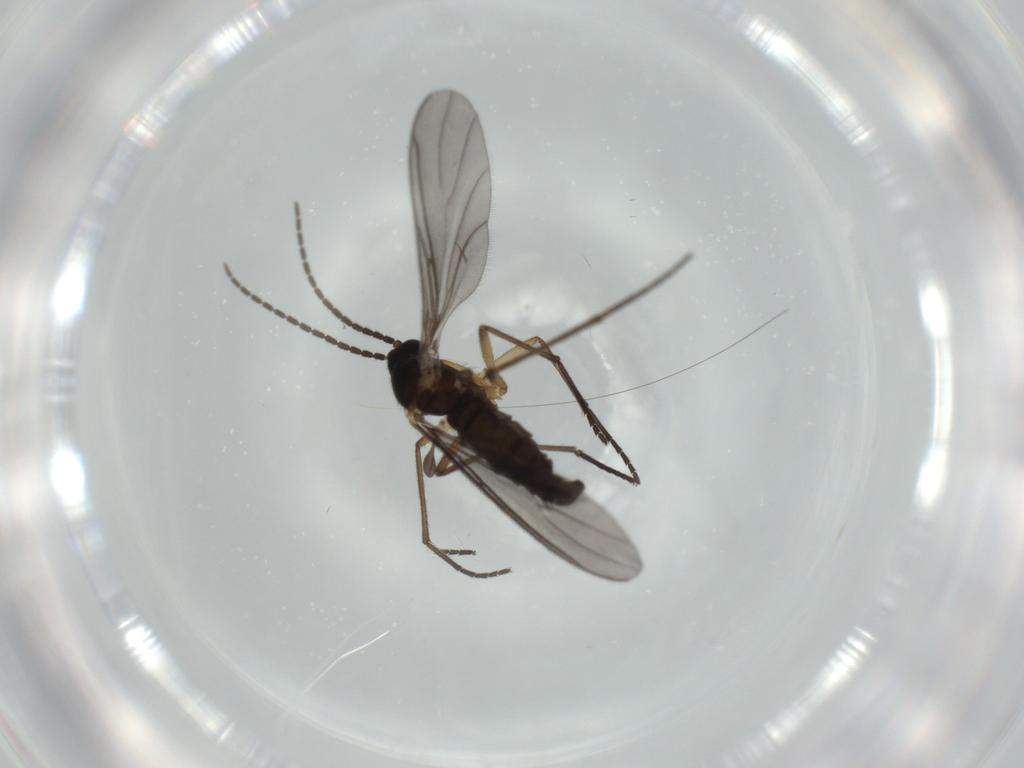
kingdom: Animalia
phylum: Arthropoda
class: Insecta
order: Diptera
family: Sciaridae
